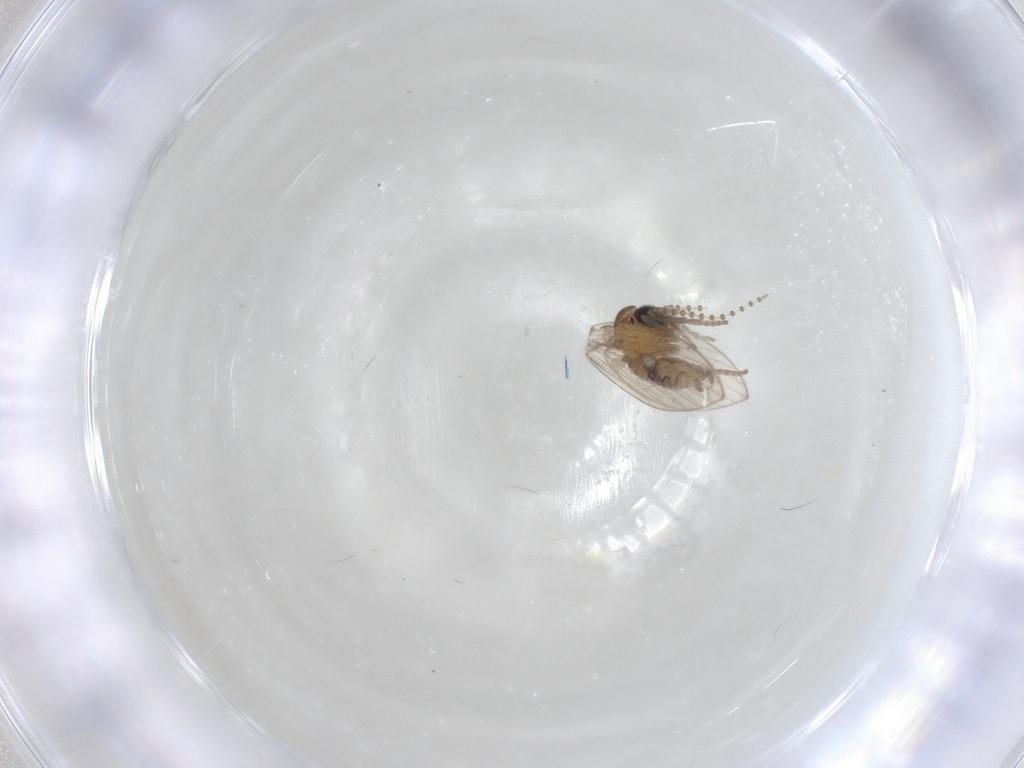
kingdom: Animalia
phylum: Arthropoda
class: Insecta
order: Diptera
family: Psychodidae
